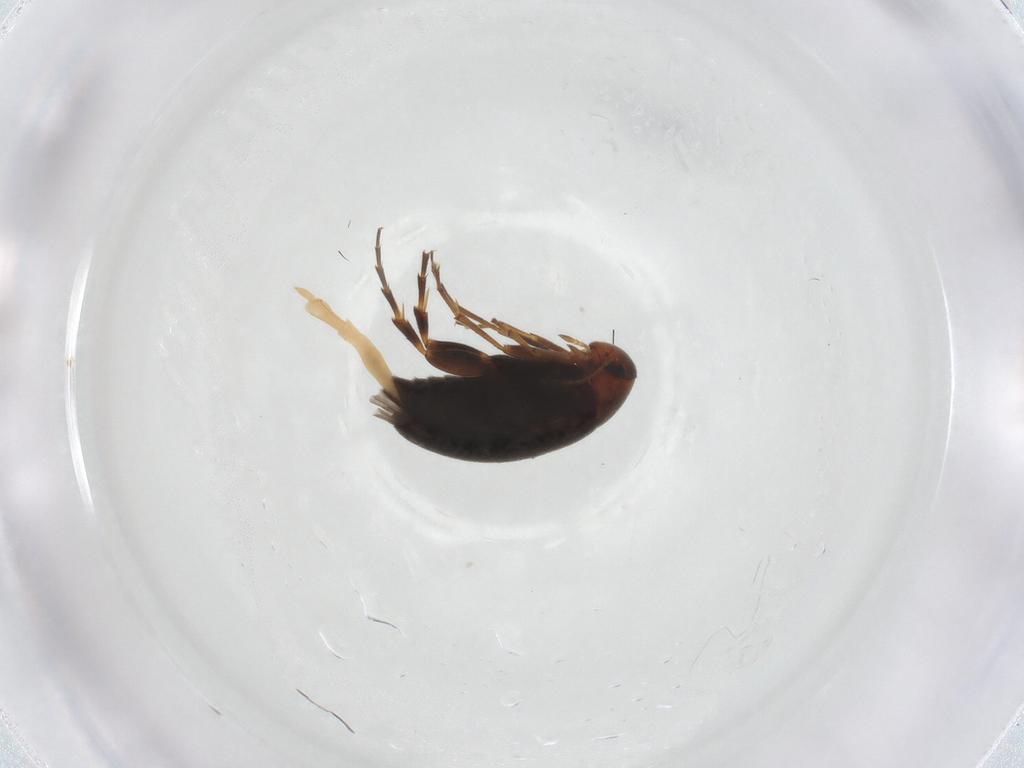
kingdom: Animalia
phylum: Arthropoda
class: Insecta
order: Coleoptera
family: Scraptiidae
